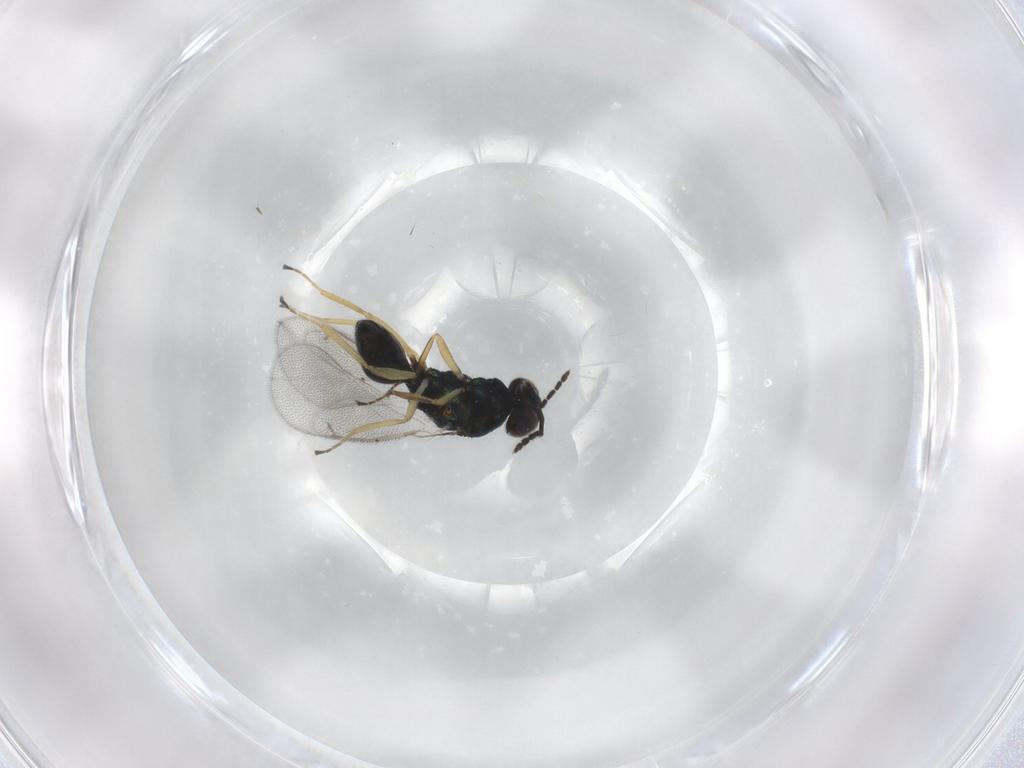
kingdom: Animalia
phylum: Arthropoda
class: Insecta
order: Hymenoptera
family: Eulophidae
